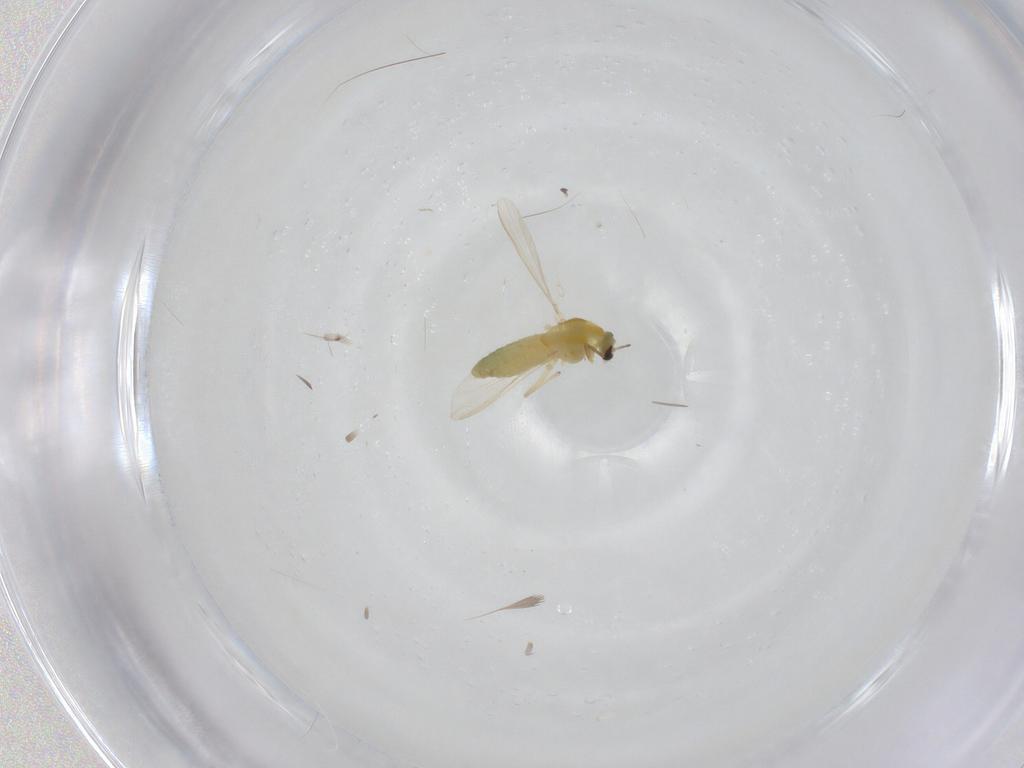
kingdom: Animalia
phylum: Arthropoda
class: Insecta
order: Diptera
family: Chironomidae
